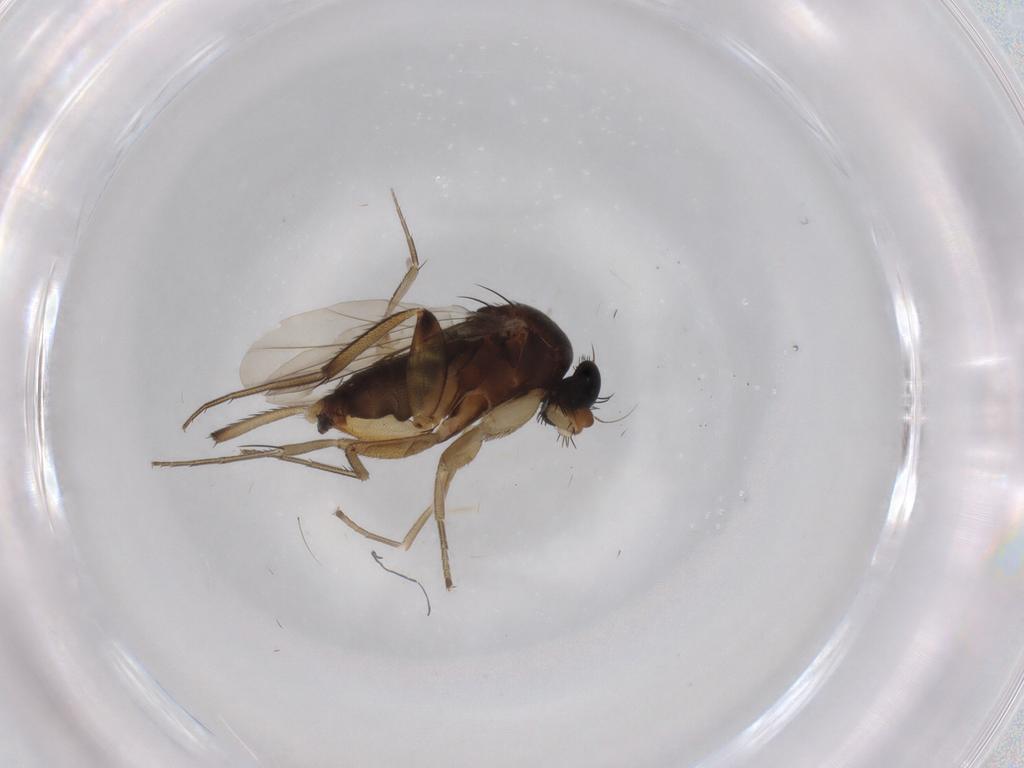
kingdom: Animalia
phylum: Arthropoda
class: Insecta
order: Diptera
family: Phoridae
